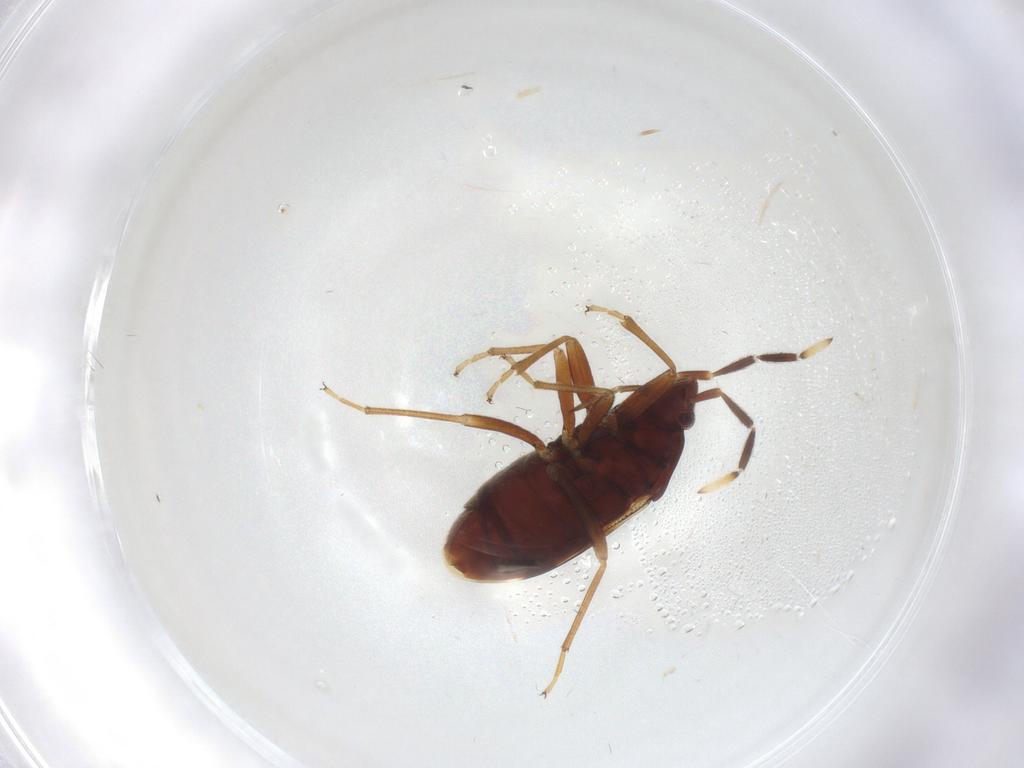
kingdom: Animalia
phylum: Arthropoda
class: Insecta
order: Hemiptera
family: Rhyparochromidae
